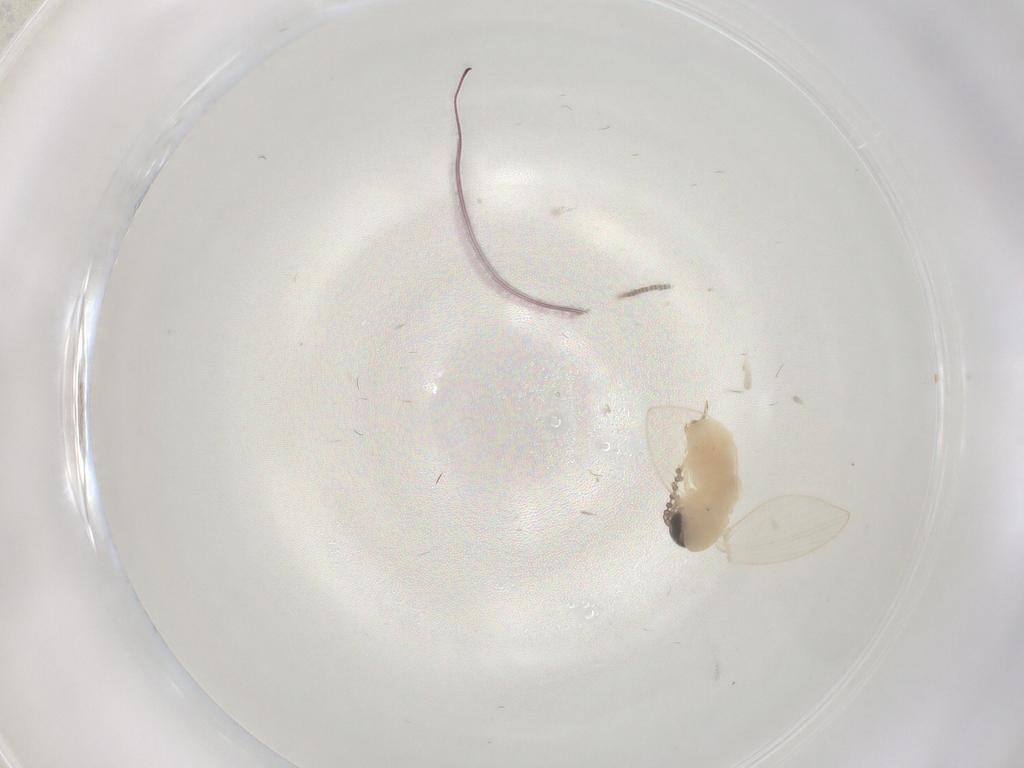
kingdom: Animalia
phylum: Arthropoda
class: Insecta
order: Diptera
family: Psychodidae
